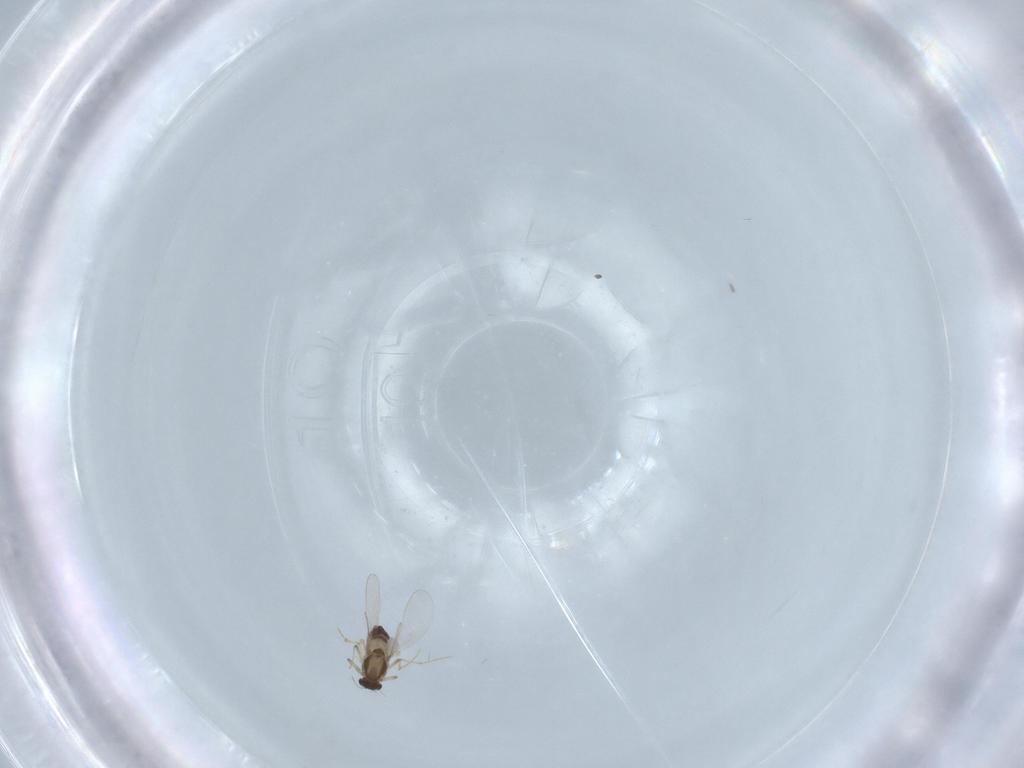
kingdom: Animalia
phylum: Arthropoda
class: Insecta
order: Diptera
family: Chironomidae
